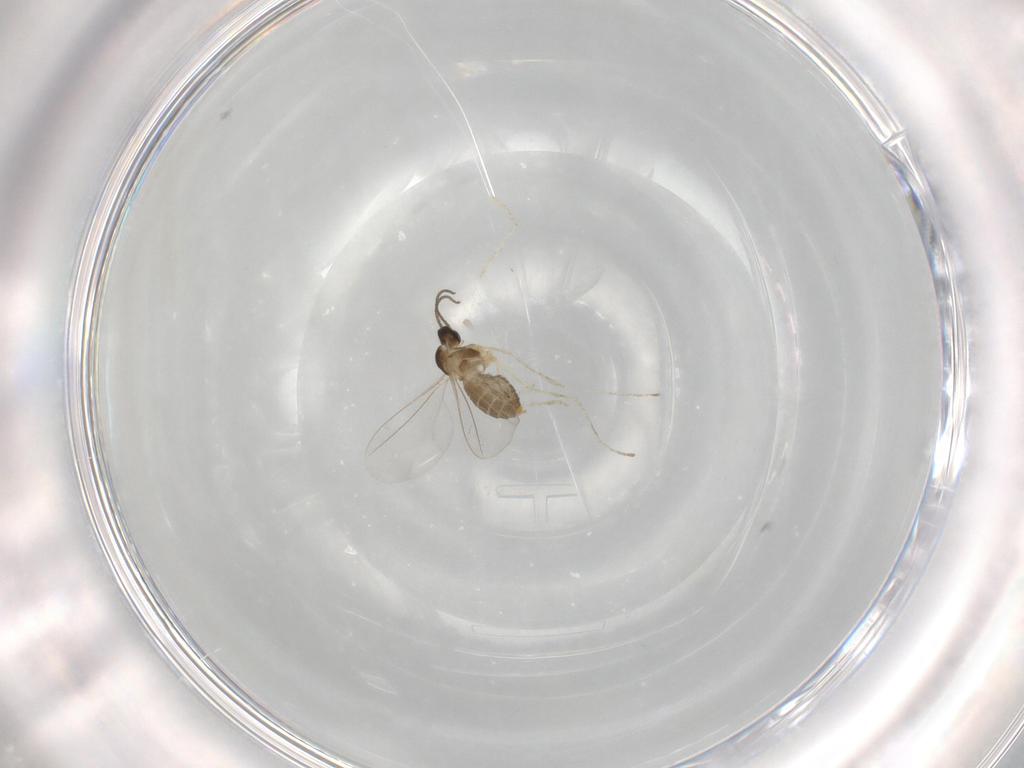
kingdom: Animalia
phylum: Arthropoda
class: Insecta
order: Diptera
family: Cecidomyiidae
